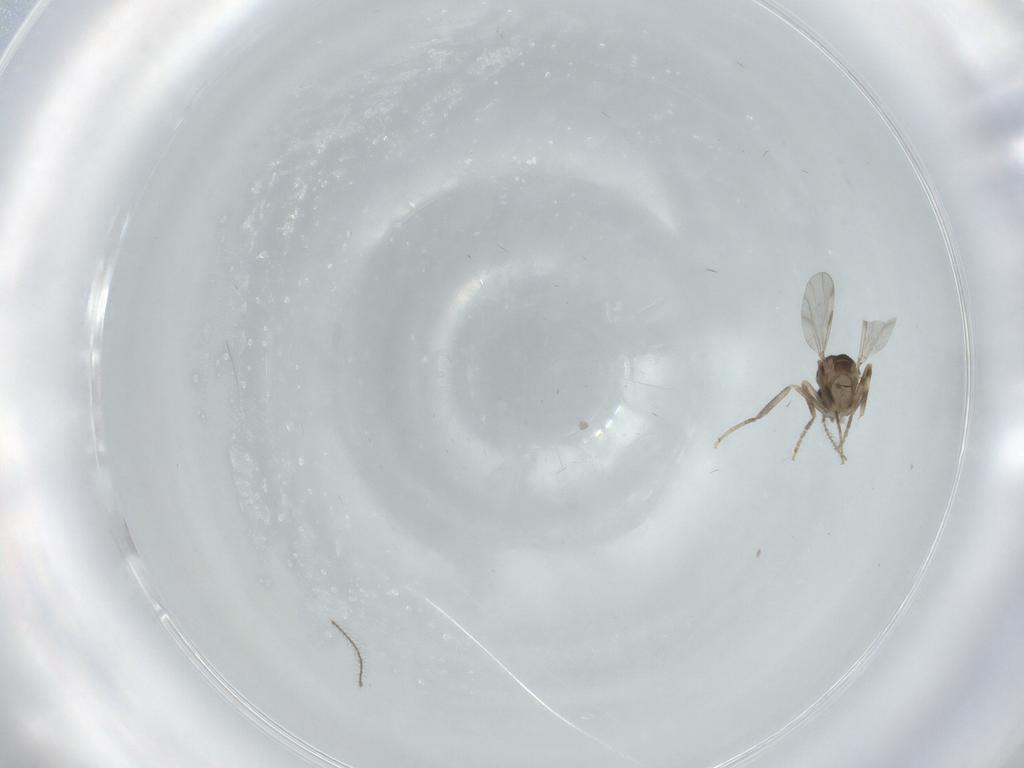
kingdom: Animalia
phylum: Arthropoda
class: Insecta
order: Diptera
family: Ceratopogonidae
